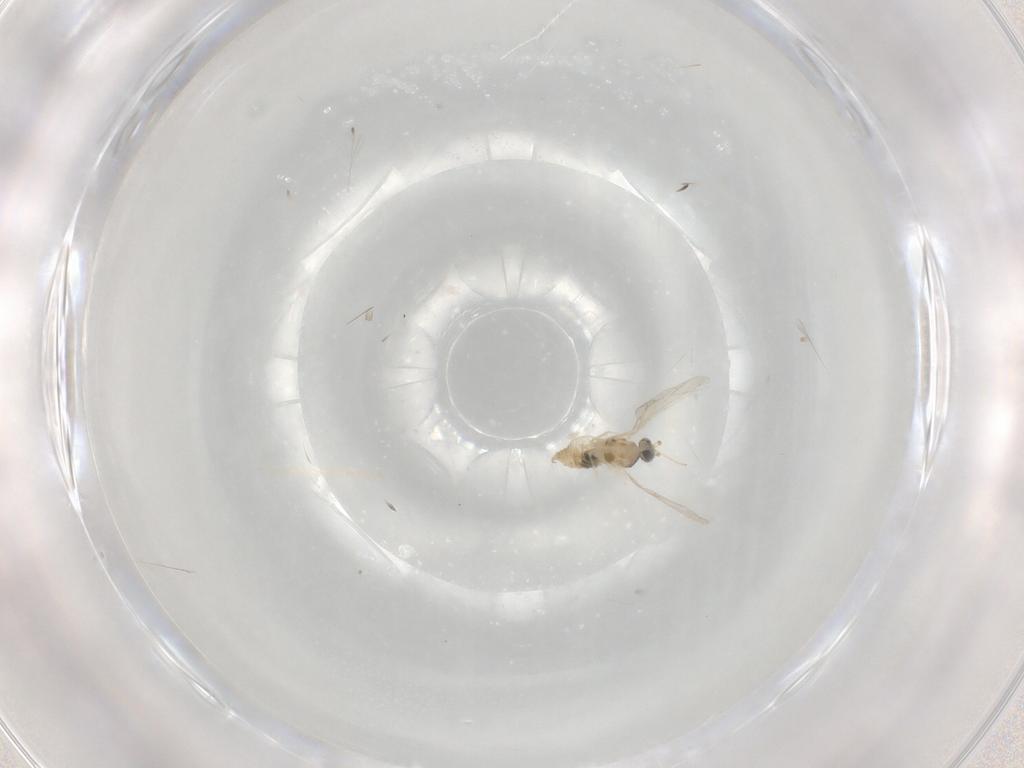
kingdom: Animalia
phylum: Arthropoda
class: Insecta
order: Diptera
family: Cecidomyiidae
